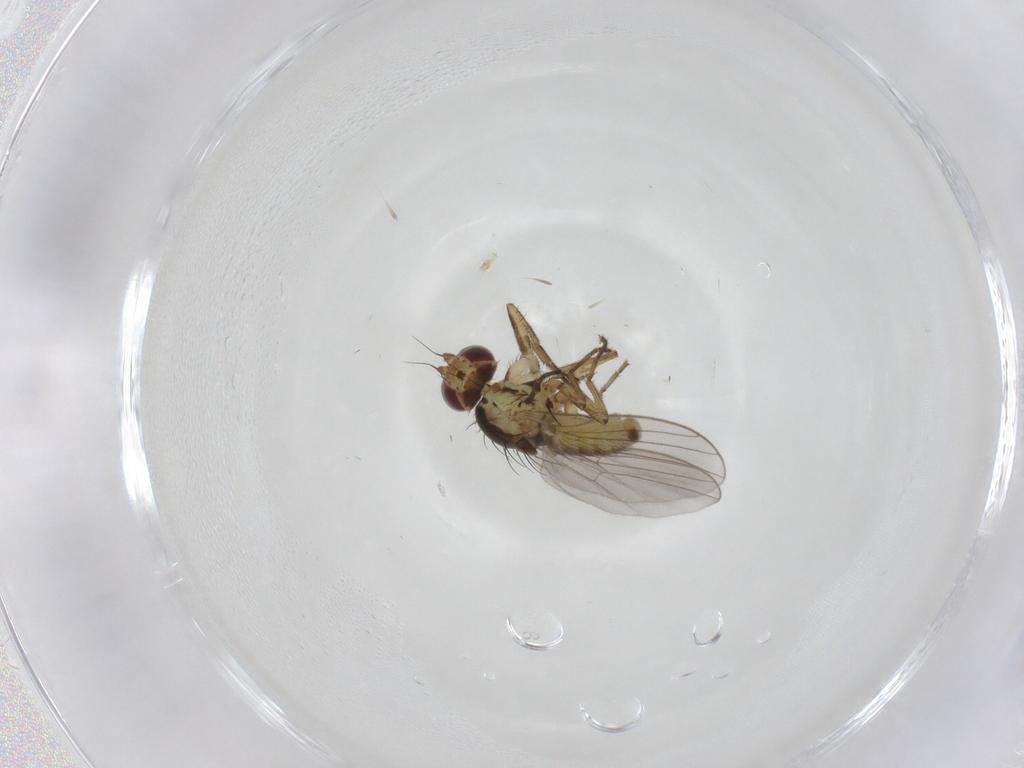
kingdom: Animalia
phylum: Arthropoda
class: Insecta
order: Diptera
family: Agromyzidae
